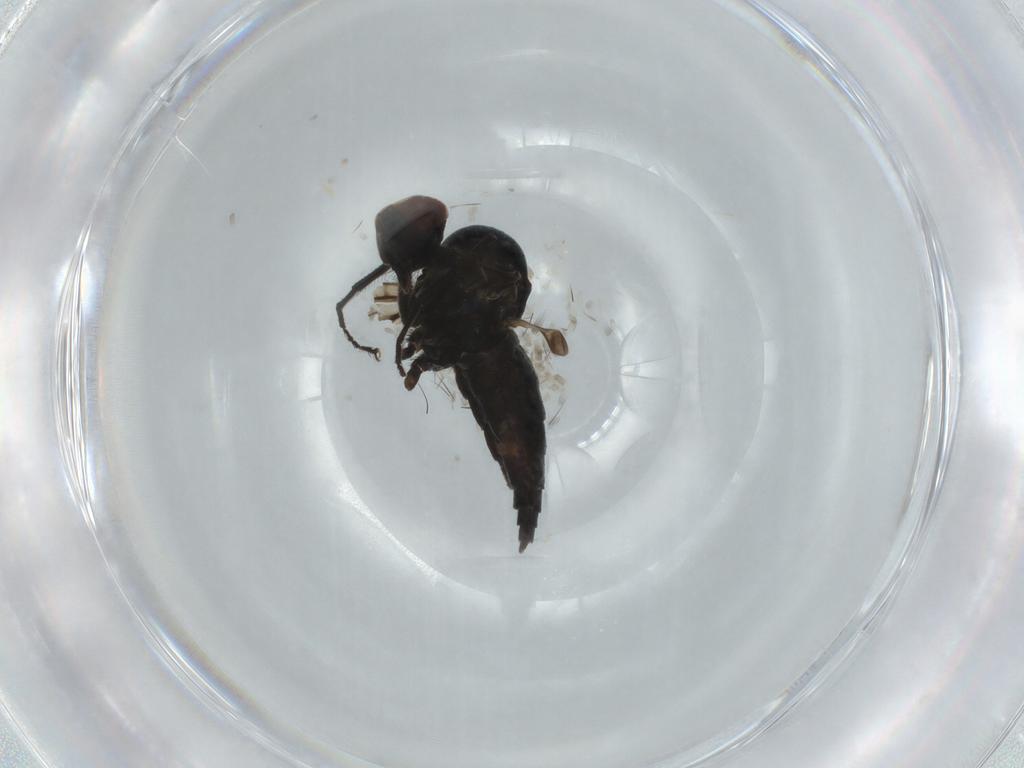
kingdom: Animalia
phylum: Arthropoda
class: Insecta
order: Diptera
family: Hybotidae
